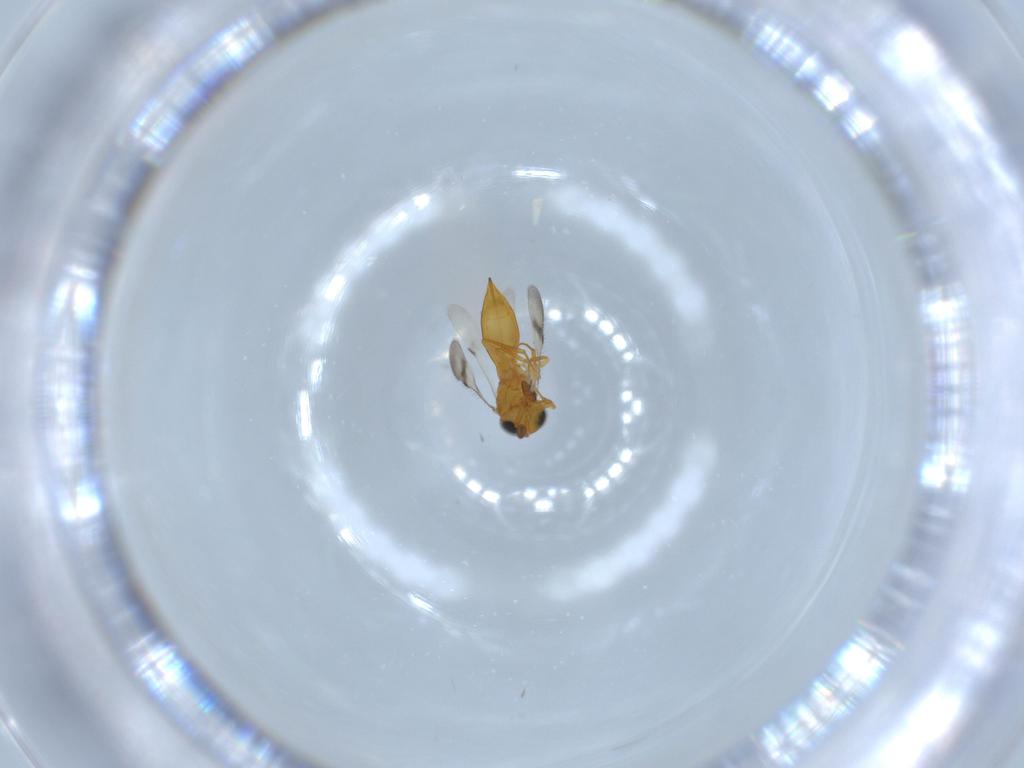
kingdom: Animalia
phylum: Arthropoda
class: Insecta
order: Hymenoptera
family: Scelionidae
